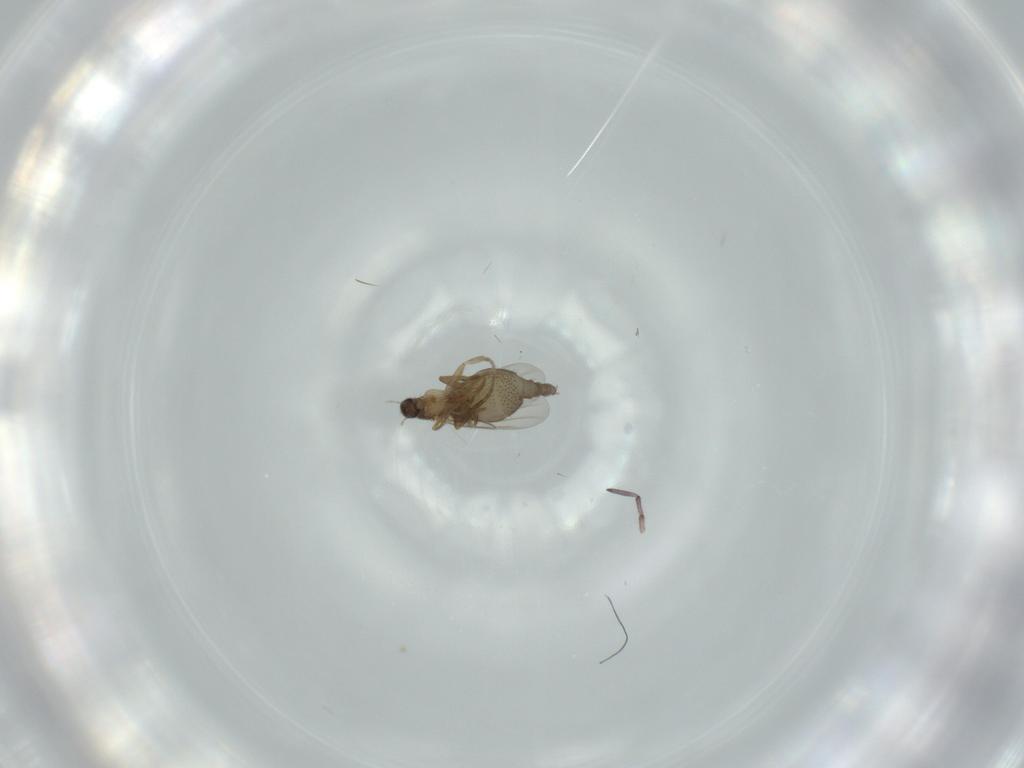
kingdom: Animalia
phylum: Arthropoda
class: Insecta
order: Diptera
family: Phoridae
